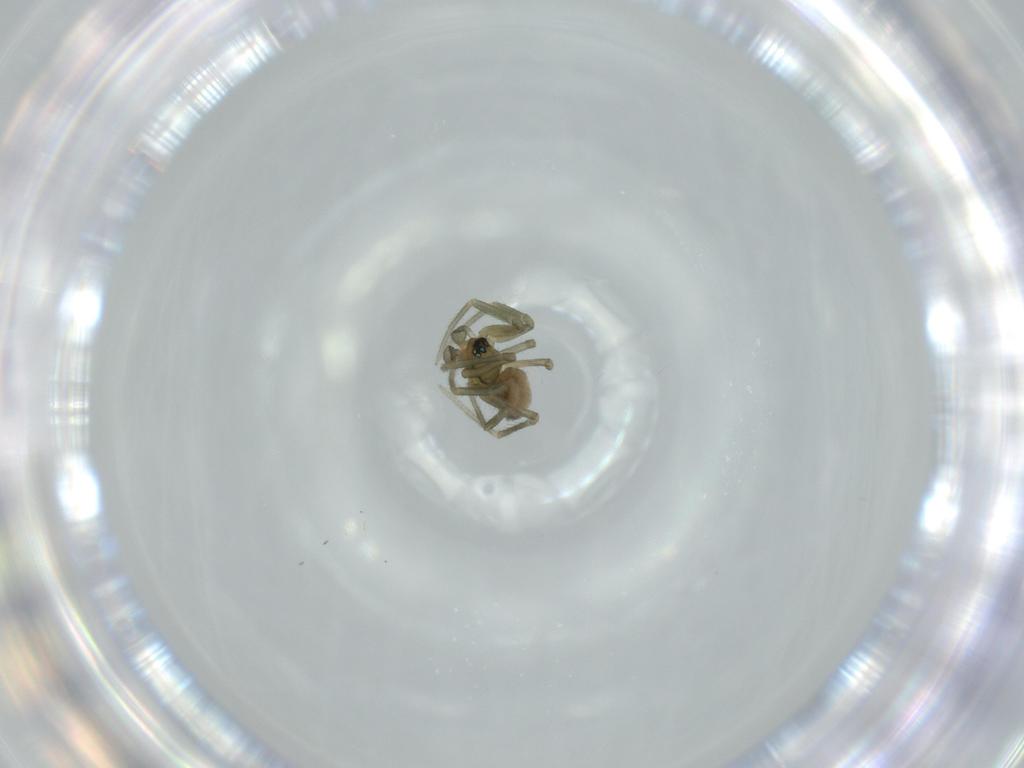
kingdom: Animalia
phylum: Arthropoda
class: Arachnida
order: Araneae
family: Linyphiidae
